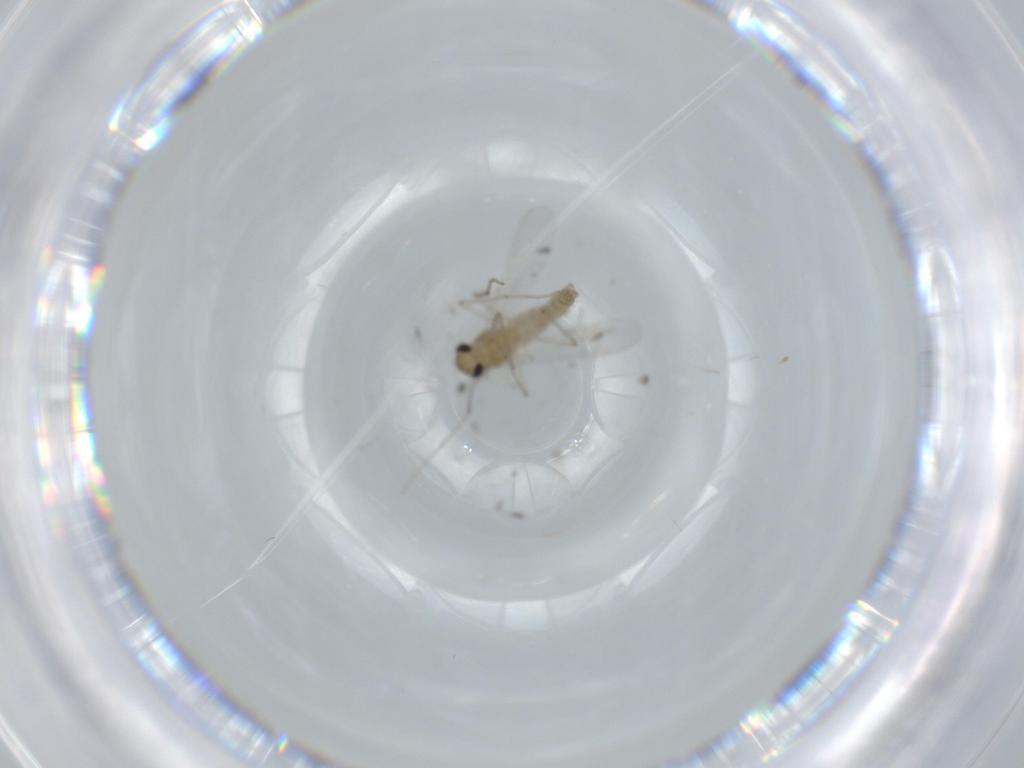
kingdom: Animalia
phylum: Arthropoda
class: Insecta
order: Diptera
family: Chironomidae
